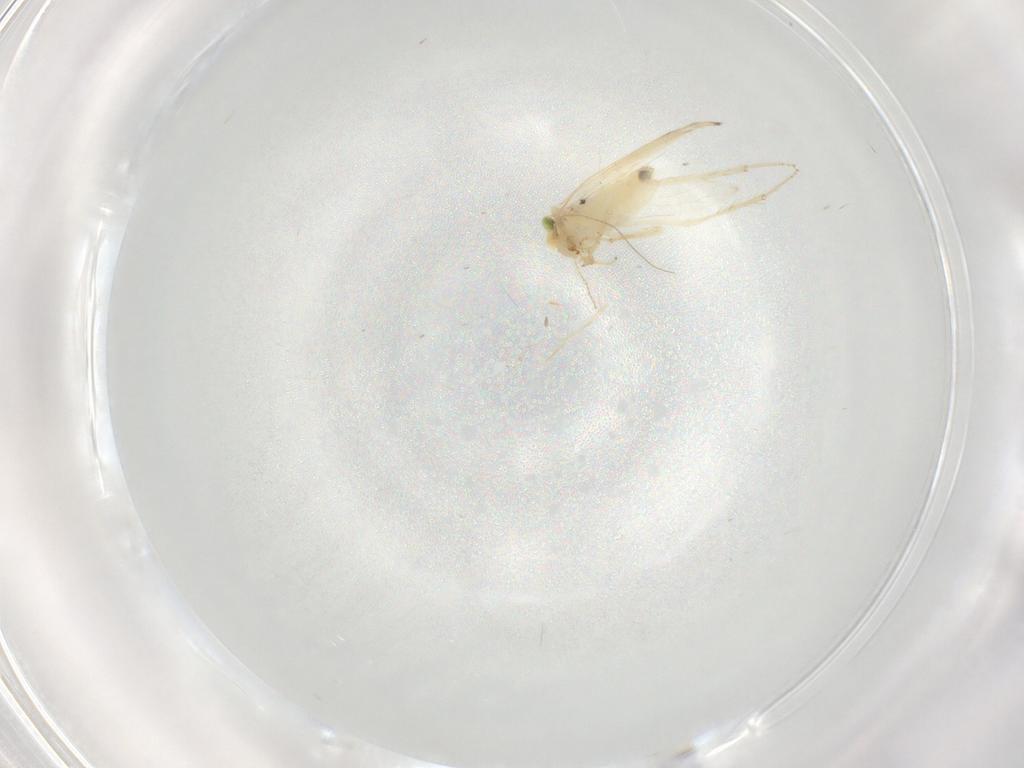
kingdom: Animalia
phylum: Arthropoda
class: Insecta
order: Psocodea
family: Lepidopsocidae
